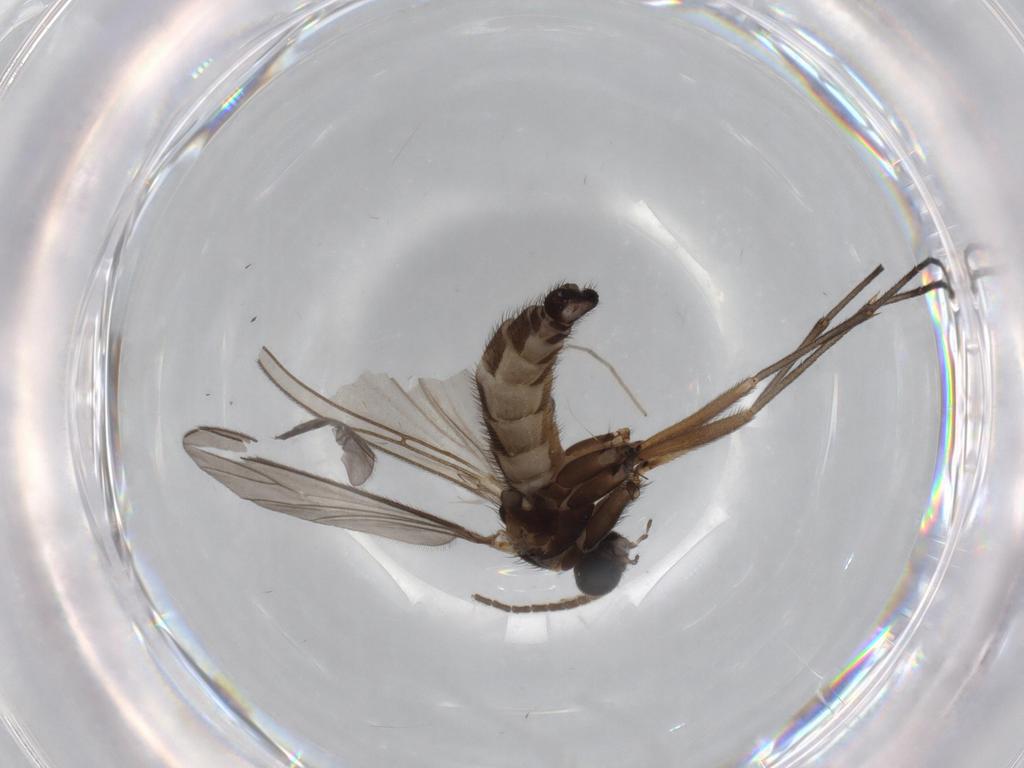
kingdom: Animalia
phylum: Arthropoda
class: Insecta
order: Diptera
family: Sciaridae
